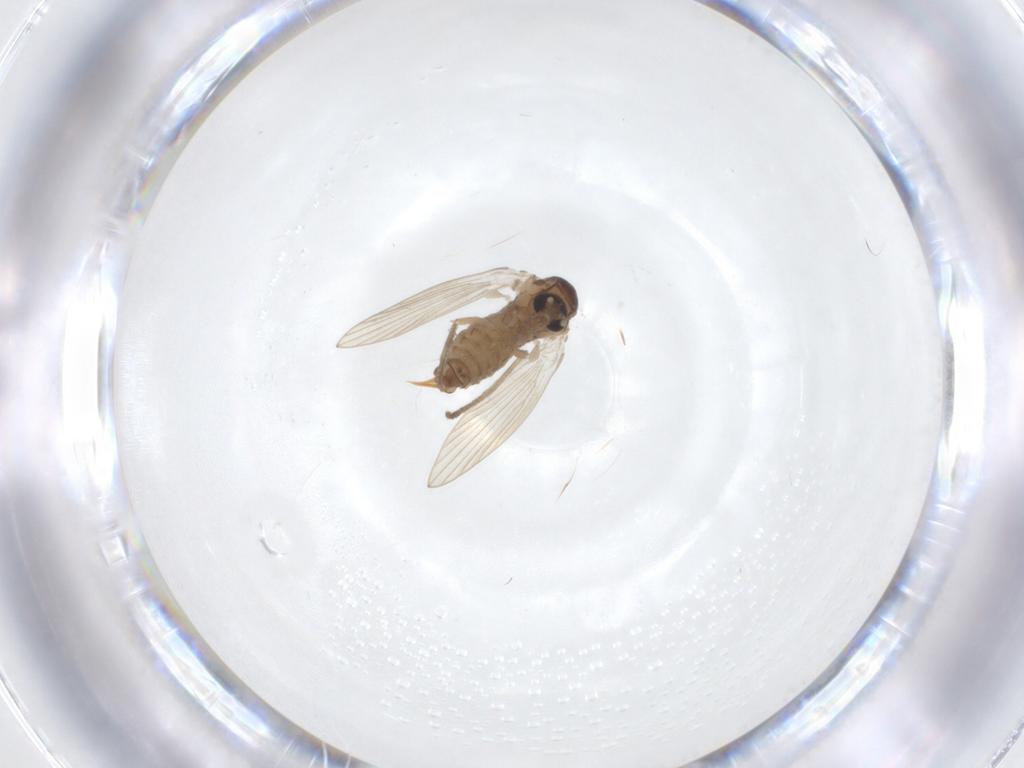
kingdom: Animalia
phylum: Arthropoda
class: Insecta
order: Diptera
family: Psychodidae
